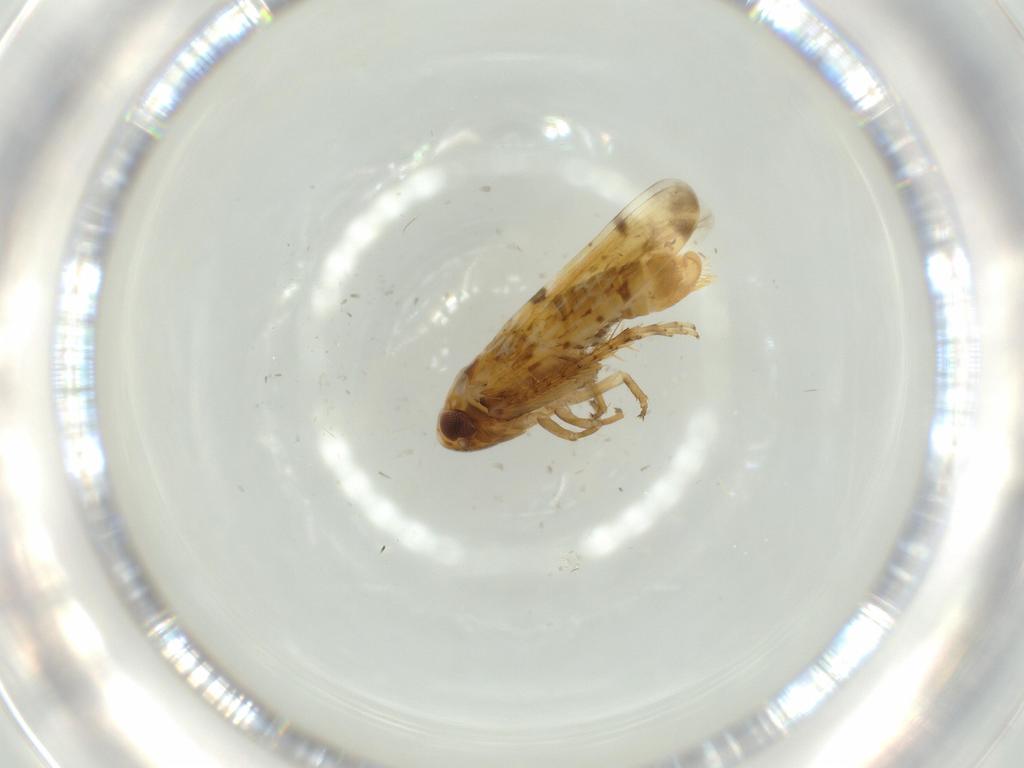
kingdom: Animalia
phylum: Arthropoda
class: Insecta
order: Hemiptera
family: Cicadellidae
